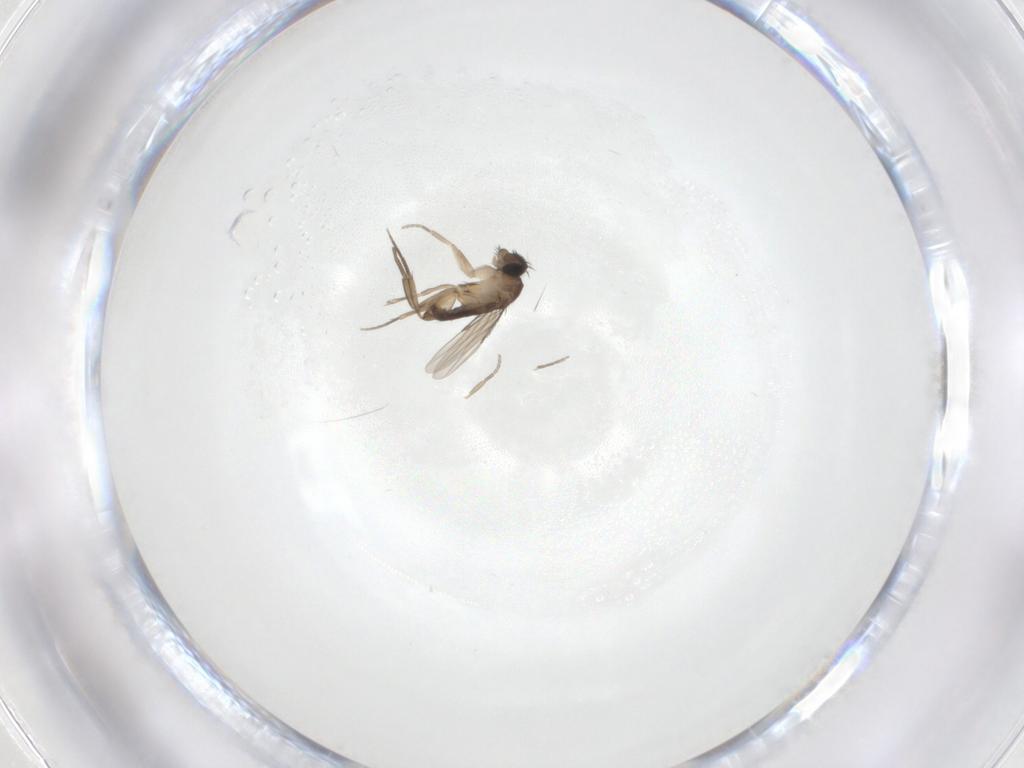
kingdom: Animalia
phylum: Arthropoda
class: Insecta
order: Diptera
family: Phoridae
